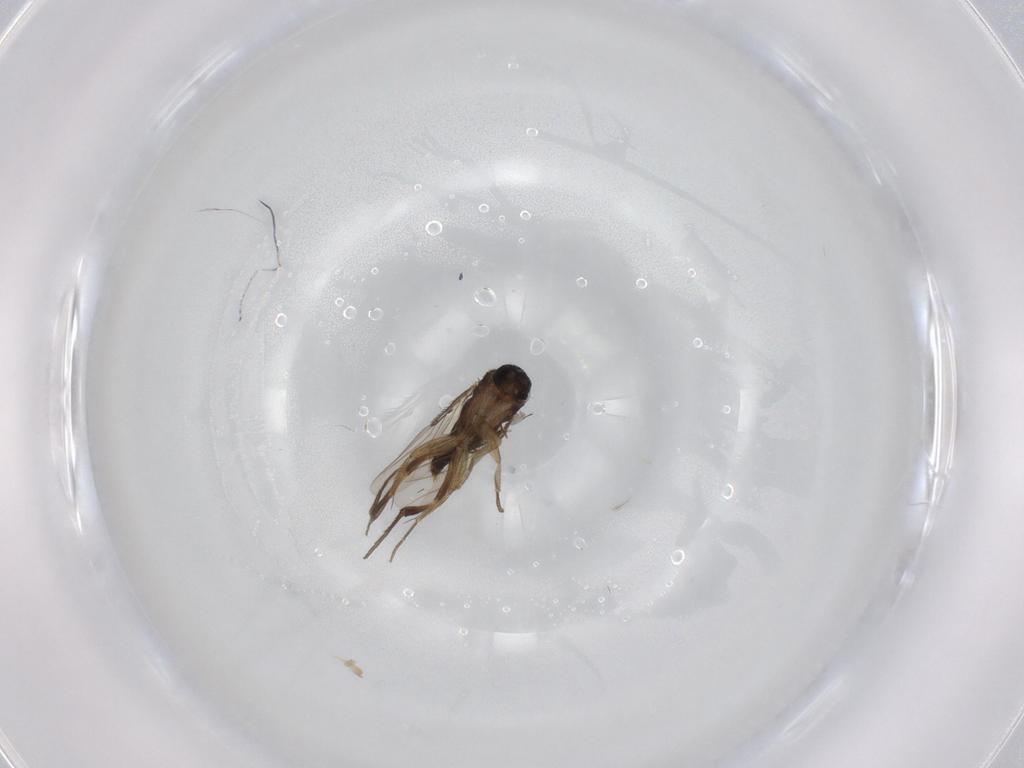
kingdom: Animalia
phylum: Arthropoda
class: Insecta
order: Diptera
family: Phoridae
